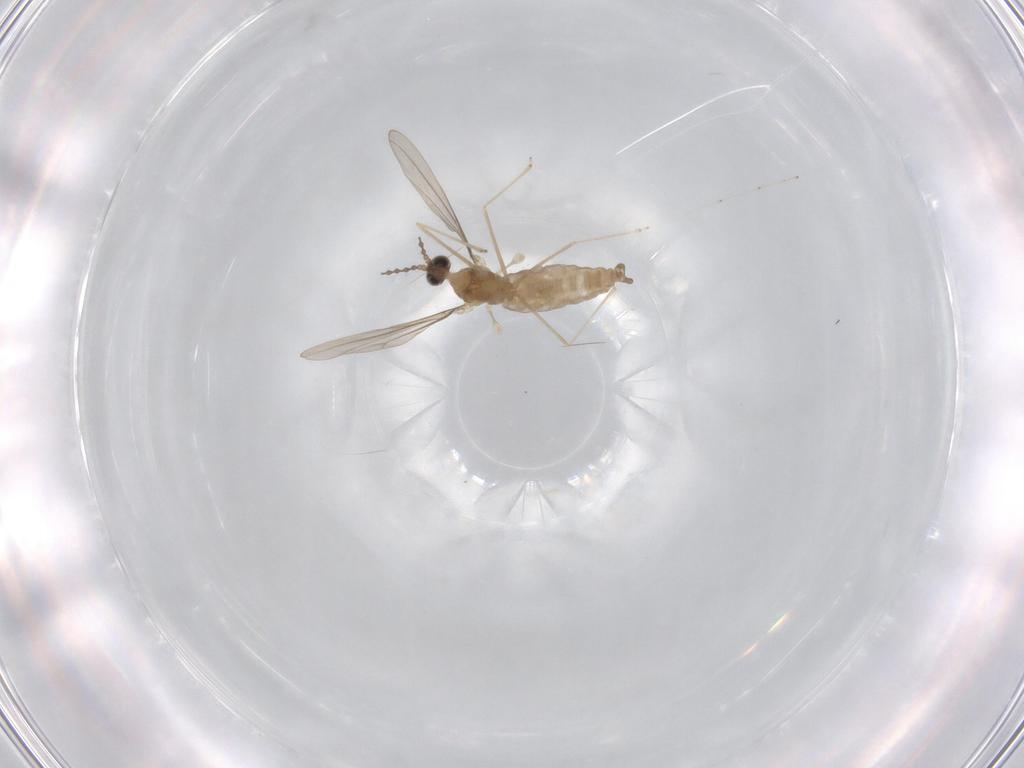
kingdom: Animalia
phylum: Arthropoda
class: Insecta
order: Diptera
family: Cecidomyiidae
